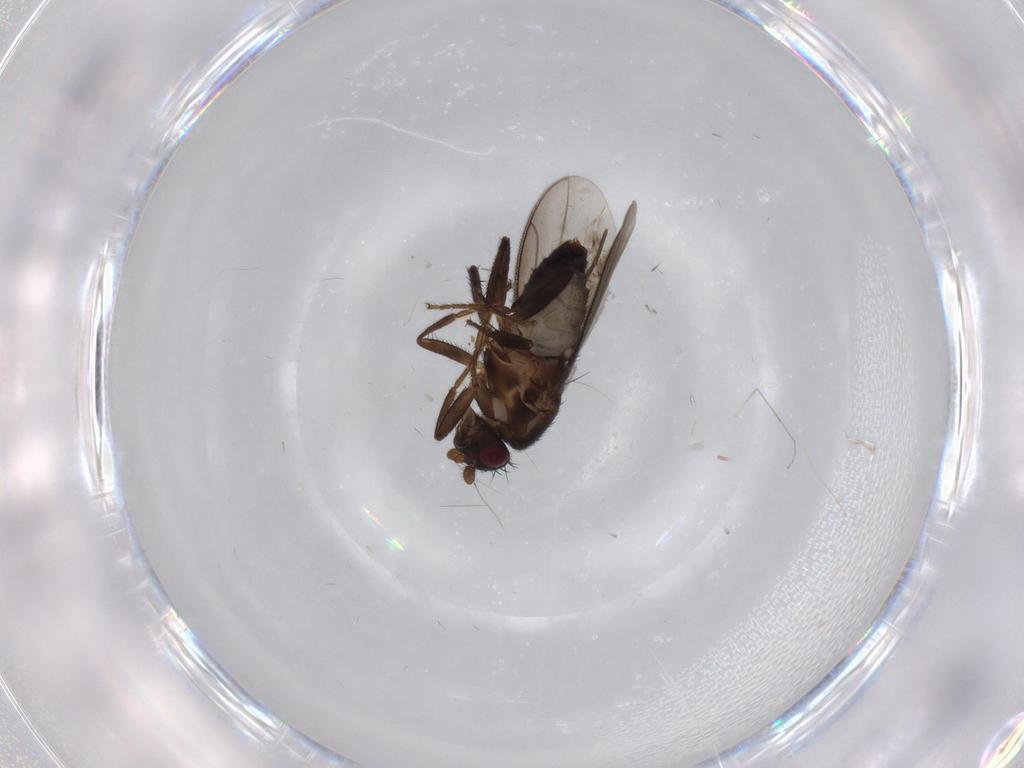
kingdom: Animalia
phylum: Arthropoda
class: Insecta
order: Diptera
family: Sphaeroceridae
